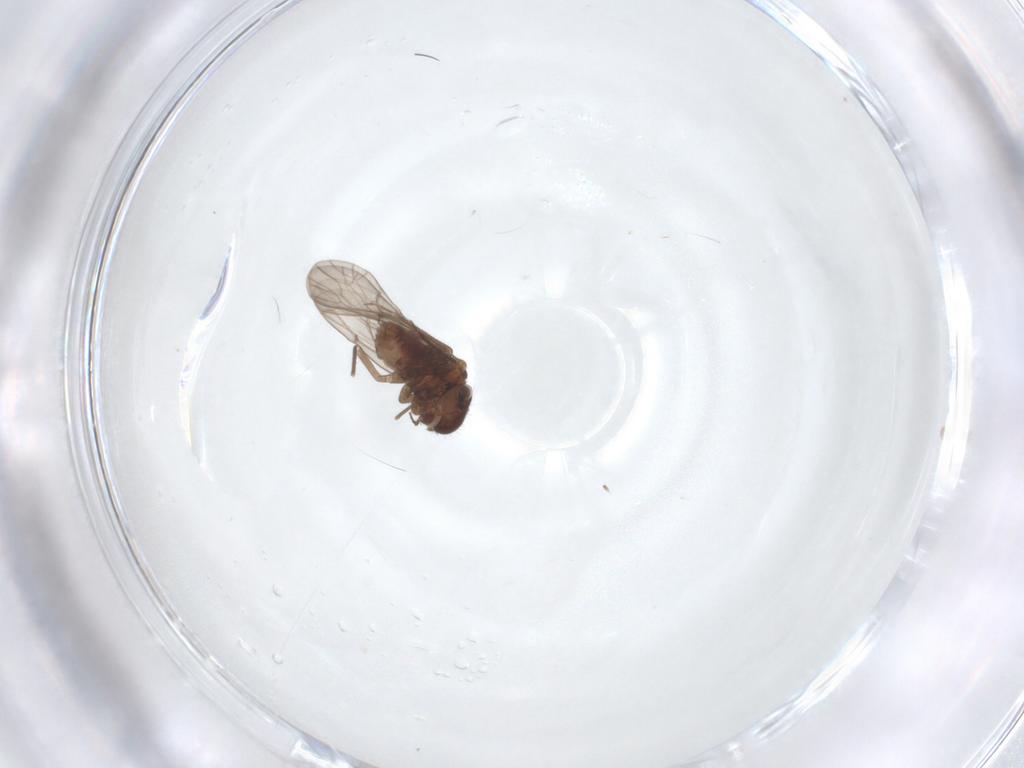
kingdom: Animalia
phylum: Arthropoda
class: Insecta
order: Psocodea
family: Ectopsocidae
